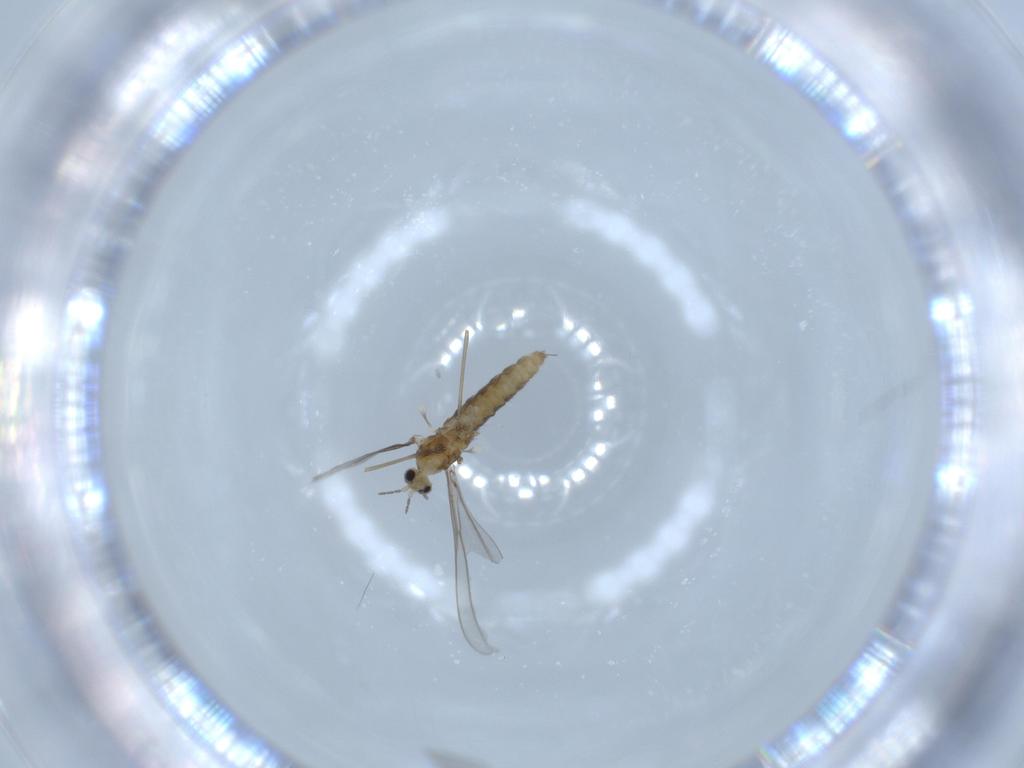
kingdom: Animalia
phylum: Arthropoda
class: Insecta
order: Diptera
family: Cecidomyiidae
